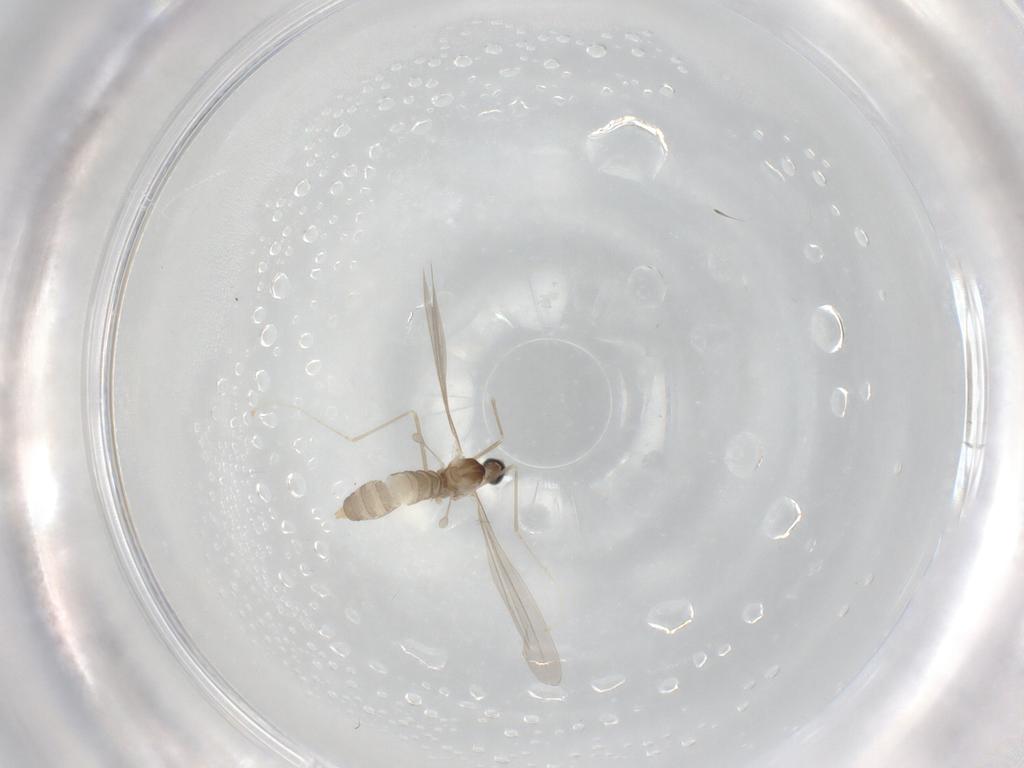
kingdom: Animalia
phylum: Arthropoda
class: Insecta
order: Diptera
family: Cecidomyiidae
